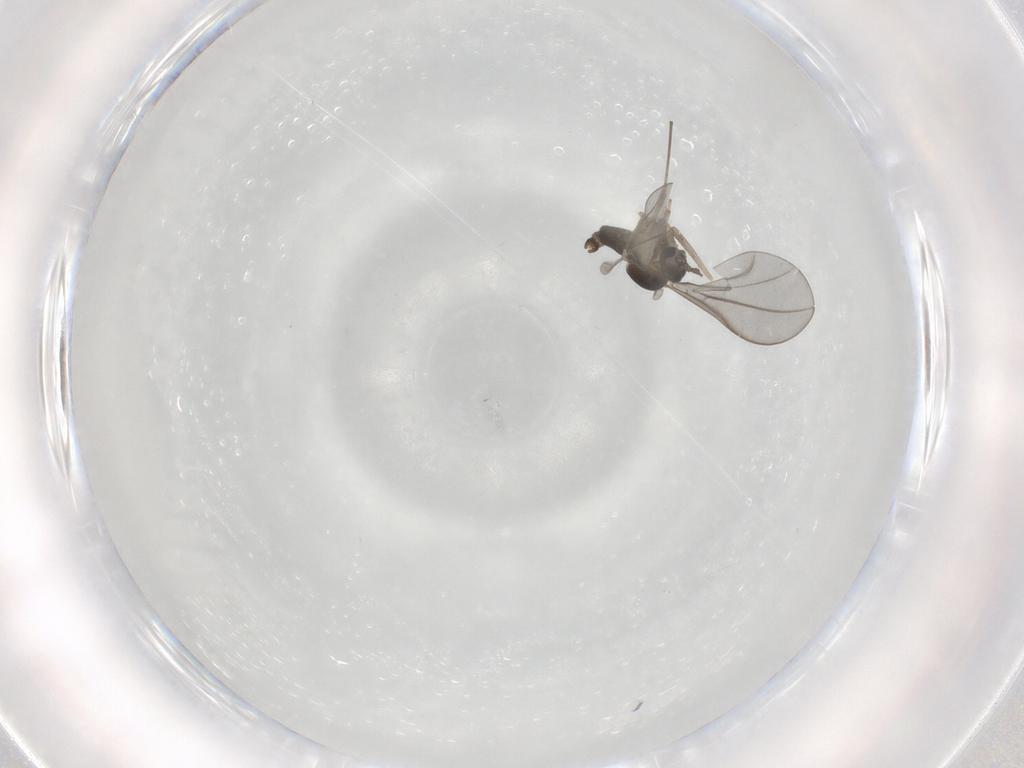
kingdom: Animalia
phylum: Arthropoda
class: Insecta
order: Diptera
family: Cecidomyiidae
